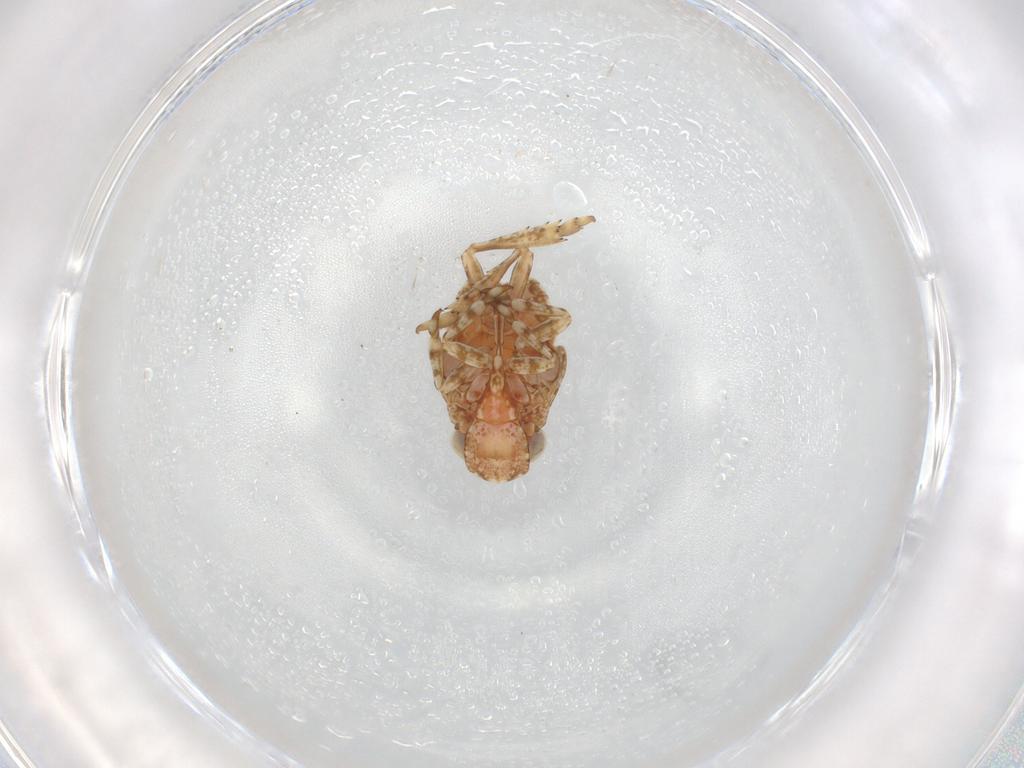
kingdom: Animalia
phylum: Arthropoda
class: Insecta
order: Hemiptera
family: Nogodinidae
